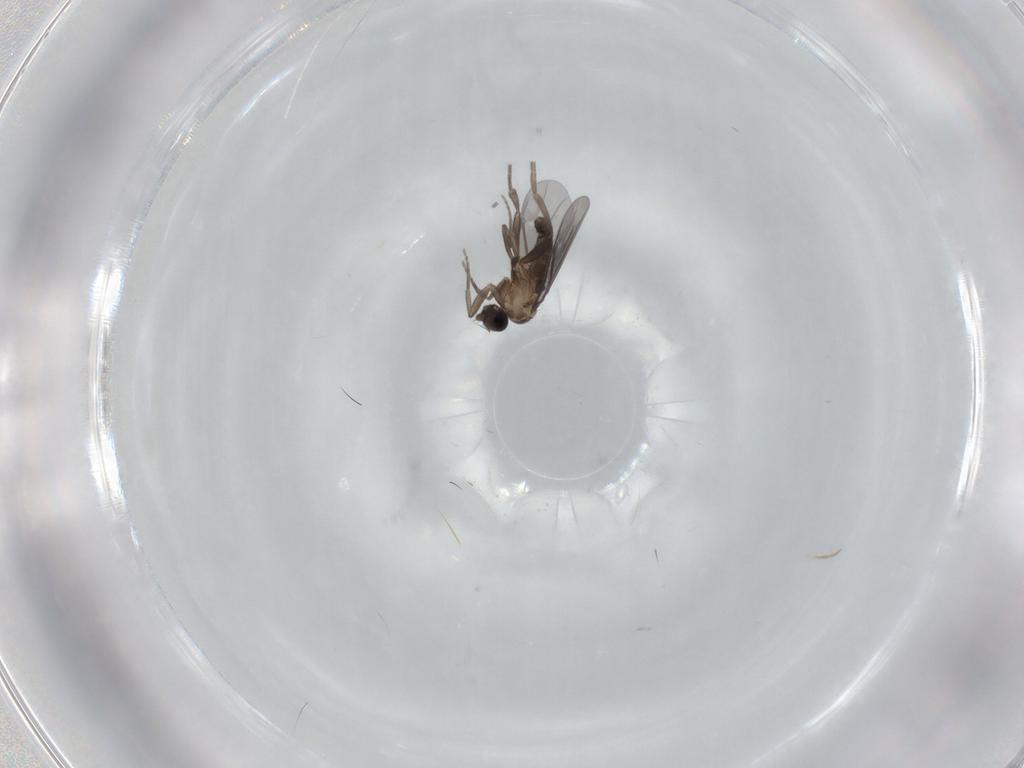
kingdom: Animalia
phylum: Arthropoda
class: Insecta
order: Diptera
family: Phoridae
